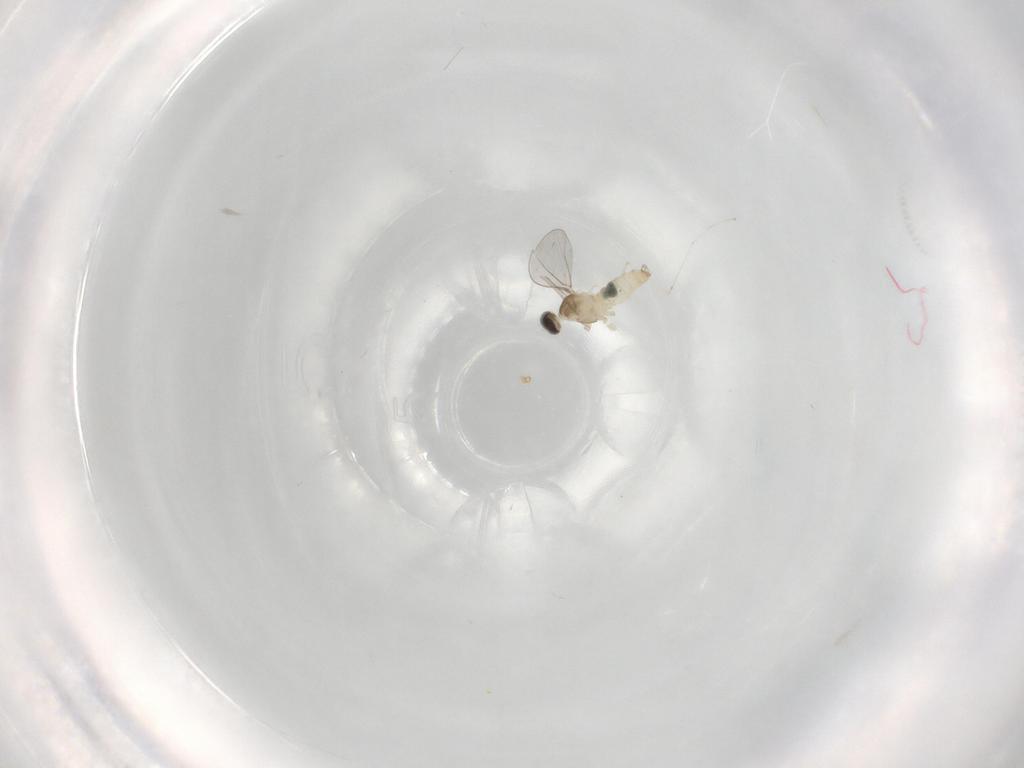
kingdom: Animalia
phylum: Arthropoda
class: Insecta
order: Diptera
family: Cecidomyiidae
